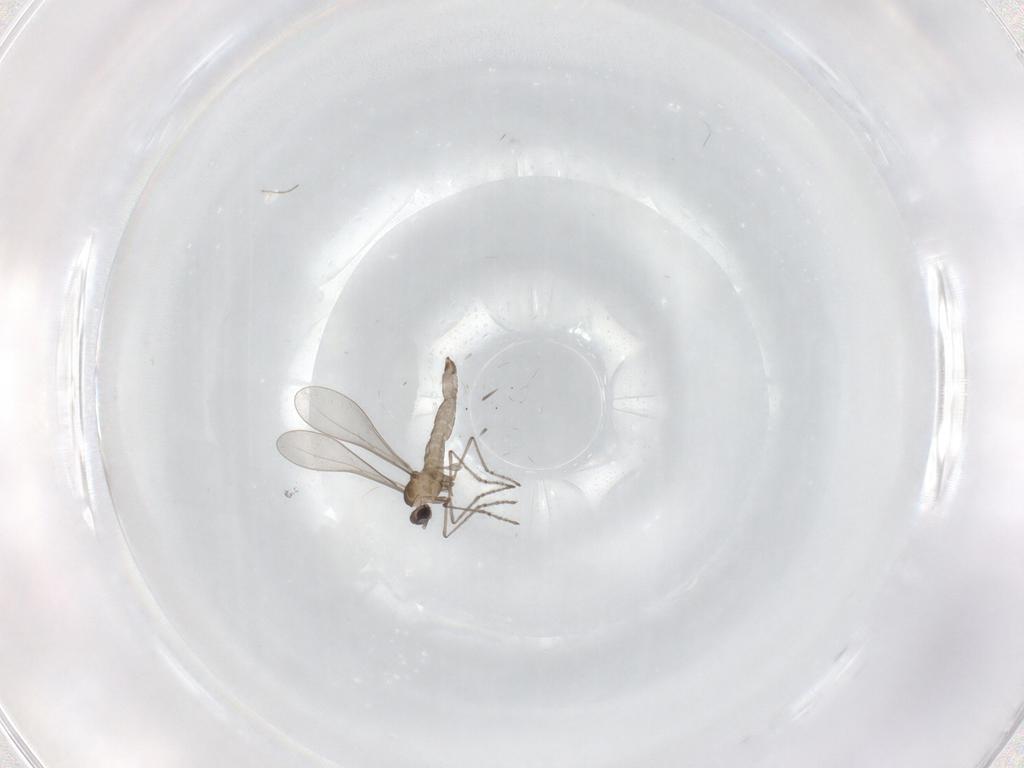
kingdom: Animalia
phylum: Arthropoda
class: Insecta
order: Diptera
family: Cecidomyiidae
